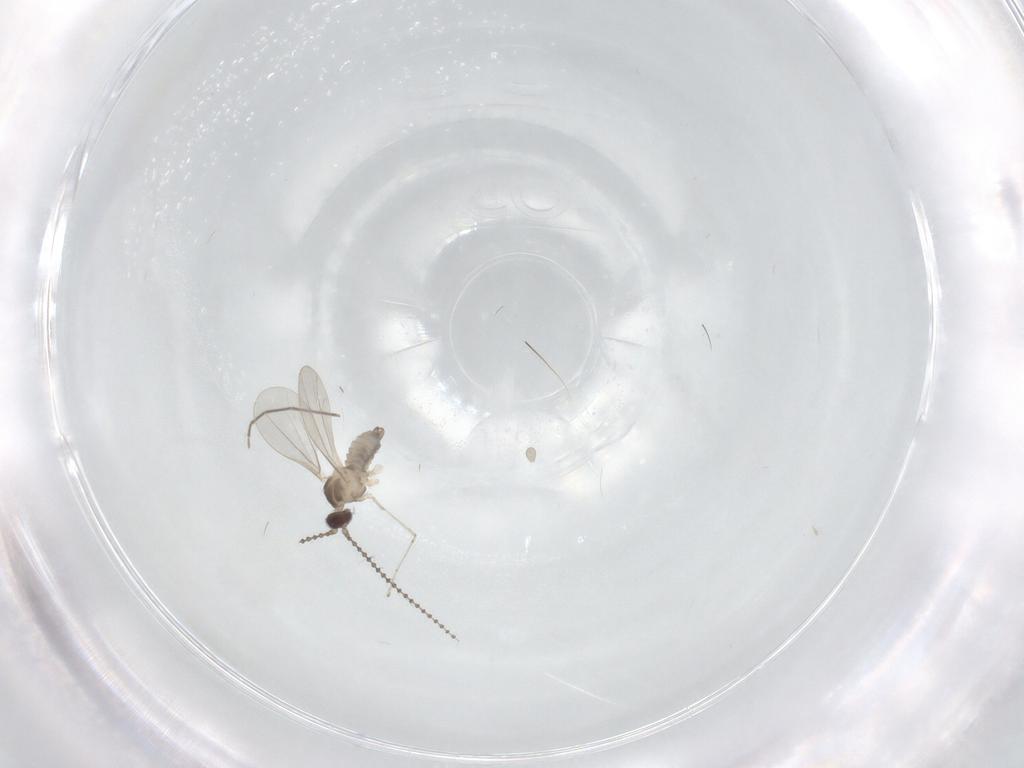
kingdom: Animalia
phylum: Arthropoda
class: Insecta
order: Diptera
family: Cecidomyiidae
